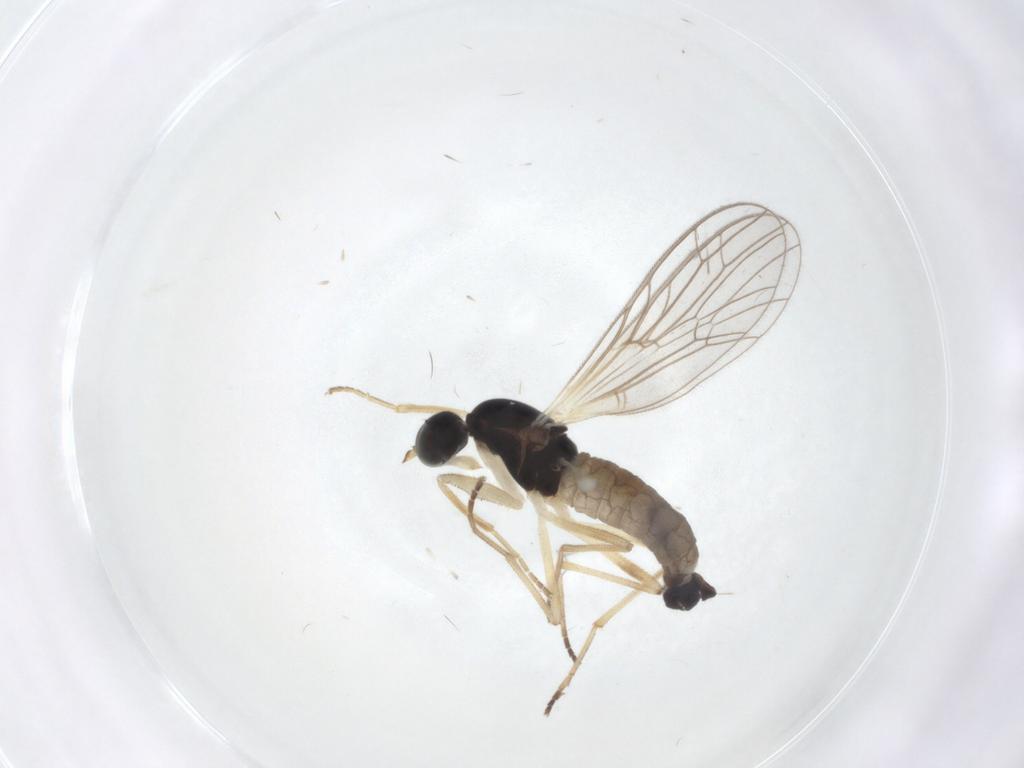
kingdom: Animalia
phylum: Arthropoda
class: Insecta
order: Diptera
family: Empididae
